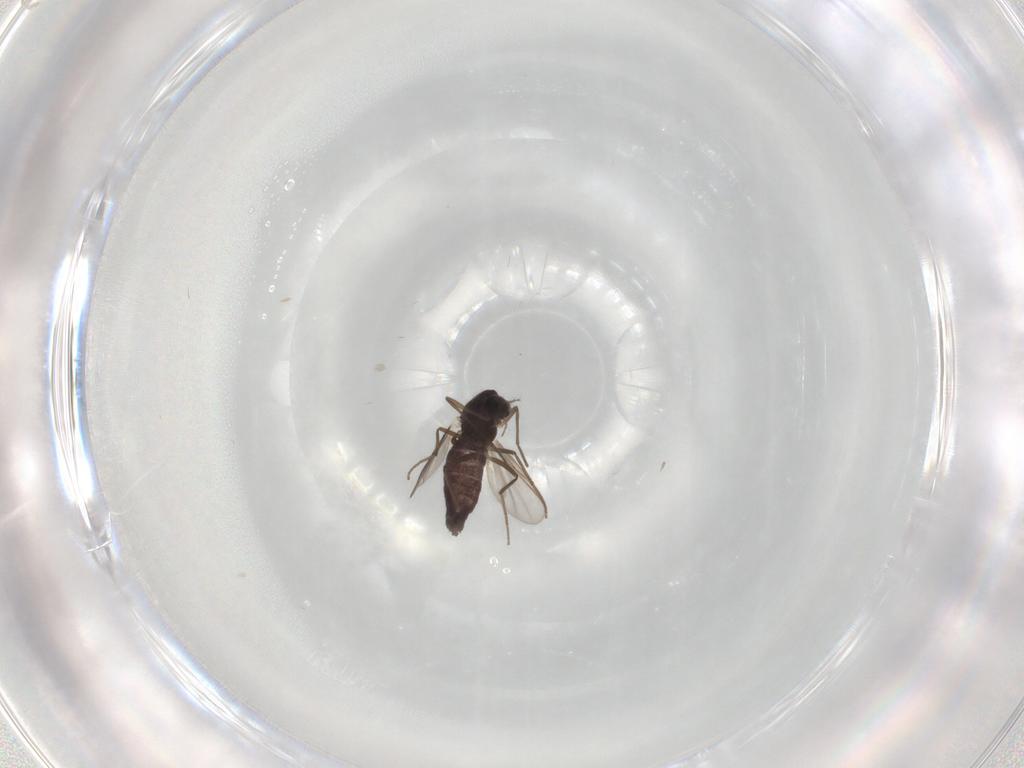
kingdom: Animalia
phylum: Arthropoda
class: Insecta
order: Diptera
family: Chironomidae
